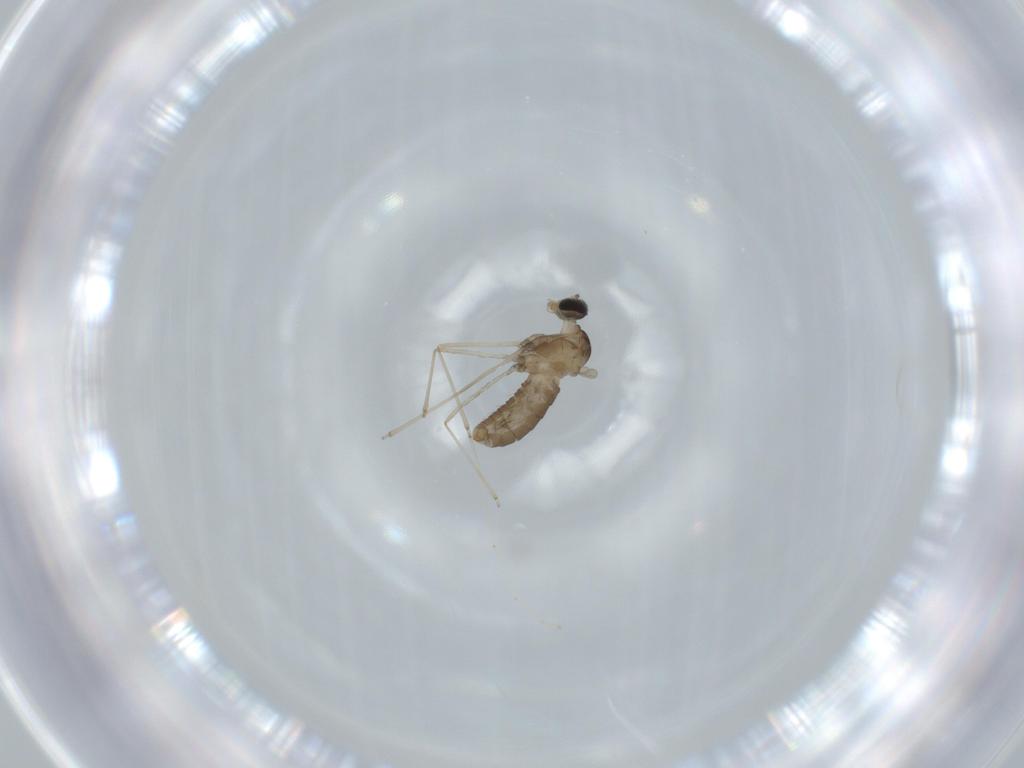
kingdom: Animalia
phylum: Arthropoda
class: Insecta
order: Diptera
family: Cecidomyiidae
